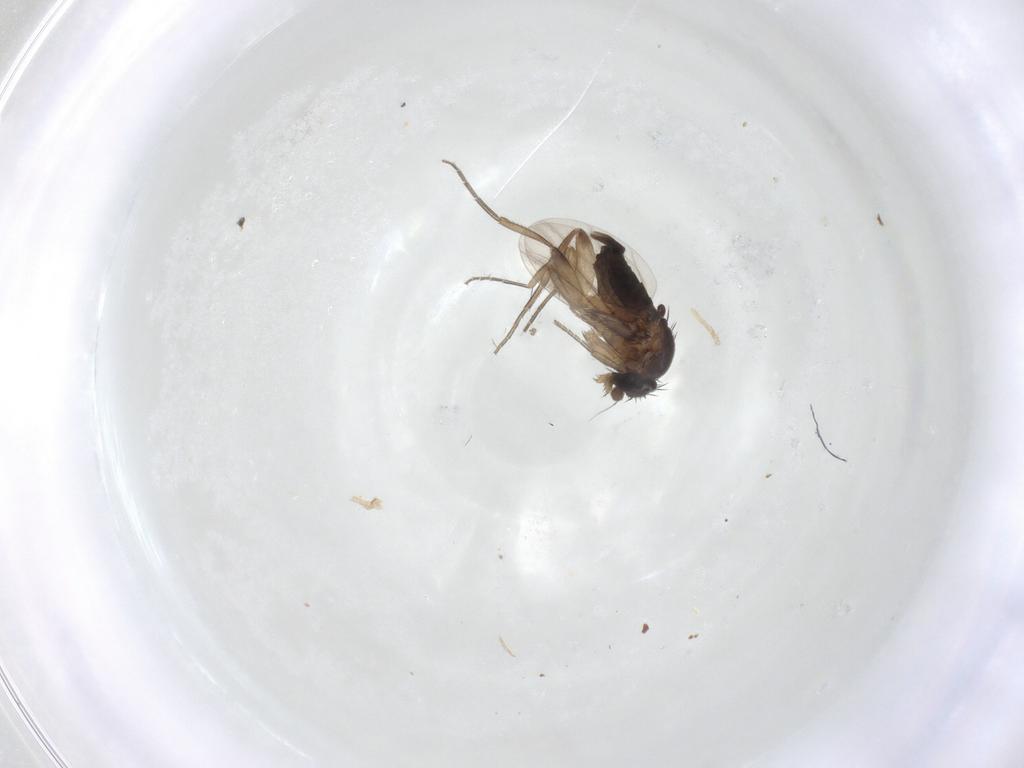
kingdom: Animalia
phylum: Arthropoda
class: Insecta
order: Diptera
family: Phoridae
